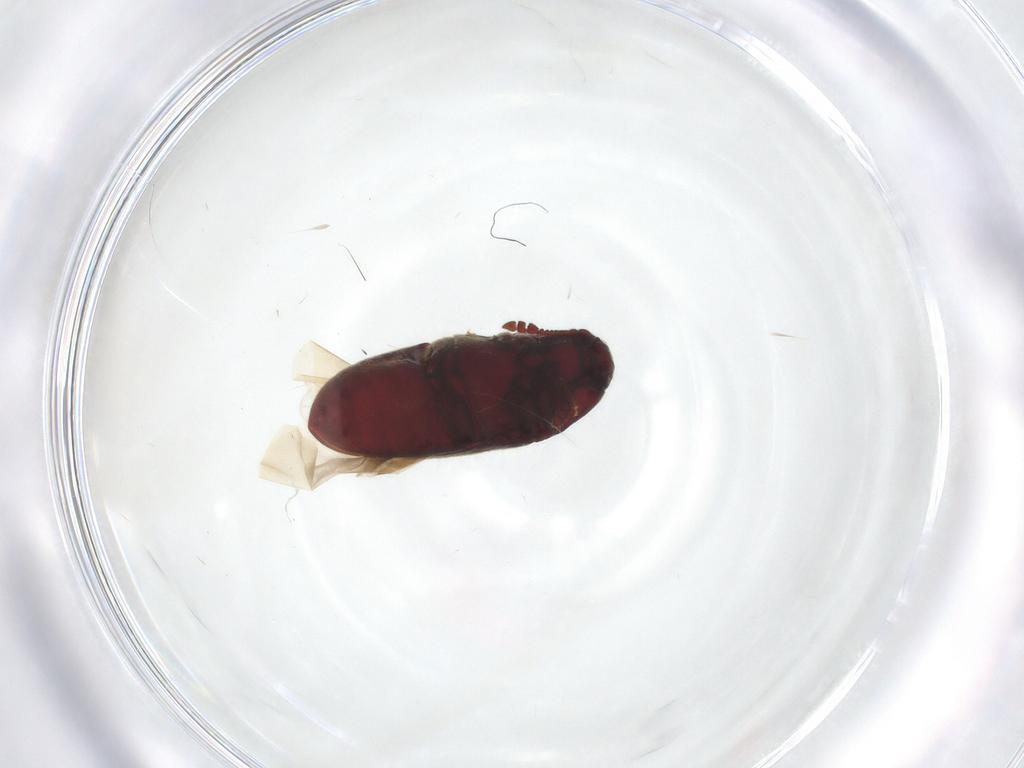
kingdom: Animalia
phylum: Arthropoda
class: Insecta
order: Coleoptera
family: Throscidae
